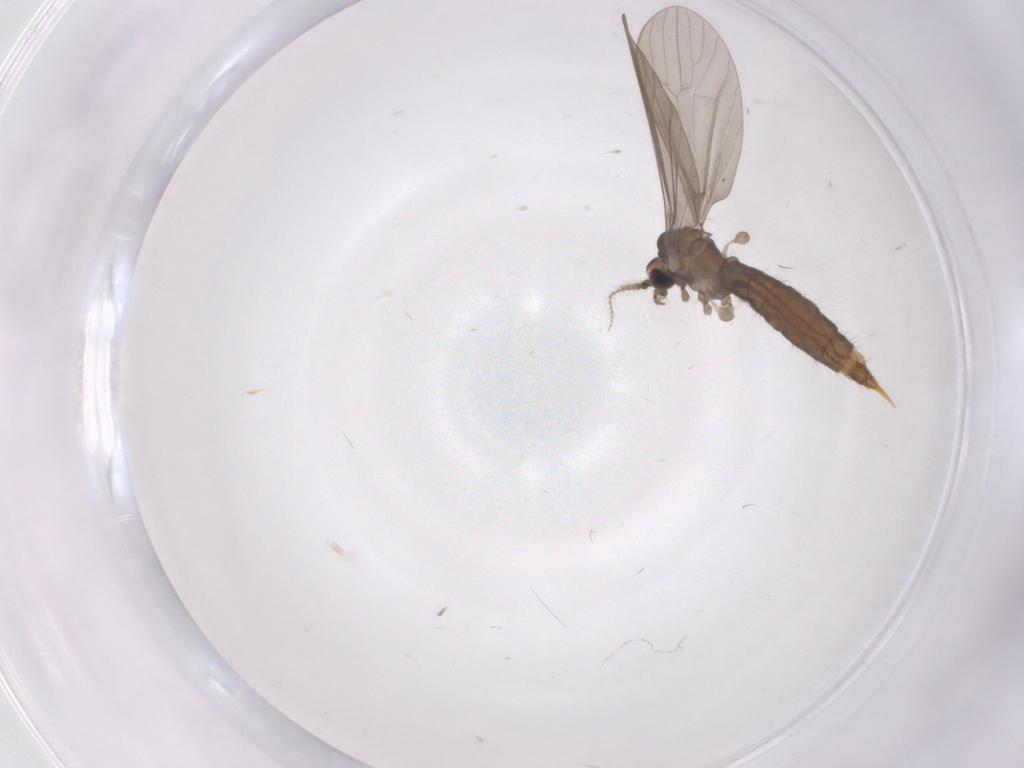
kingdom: Animalia
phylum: Arthropoda
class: Insecta
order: Diptera
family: Limoniidae
